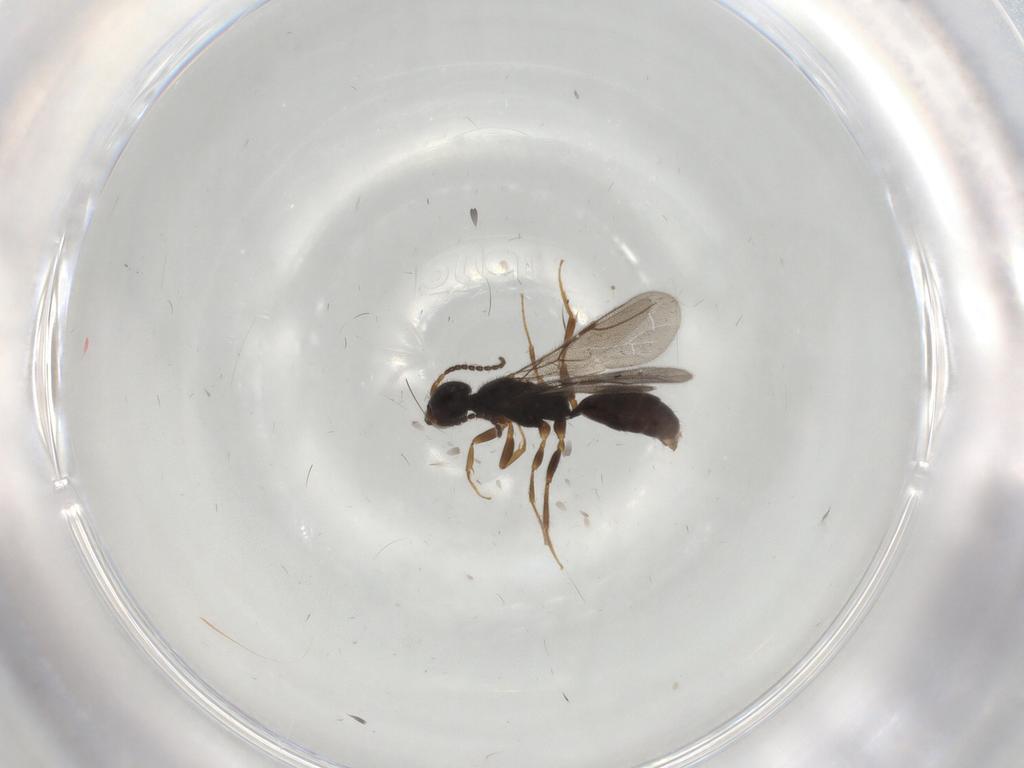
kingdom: Animalia
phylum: Arthropoda
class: Insecta
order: Hymenoptera
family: Bethylidae
